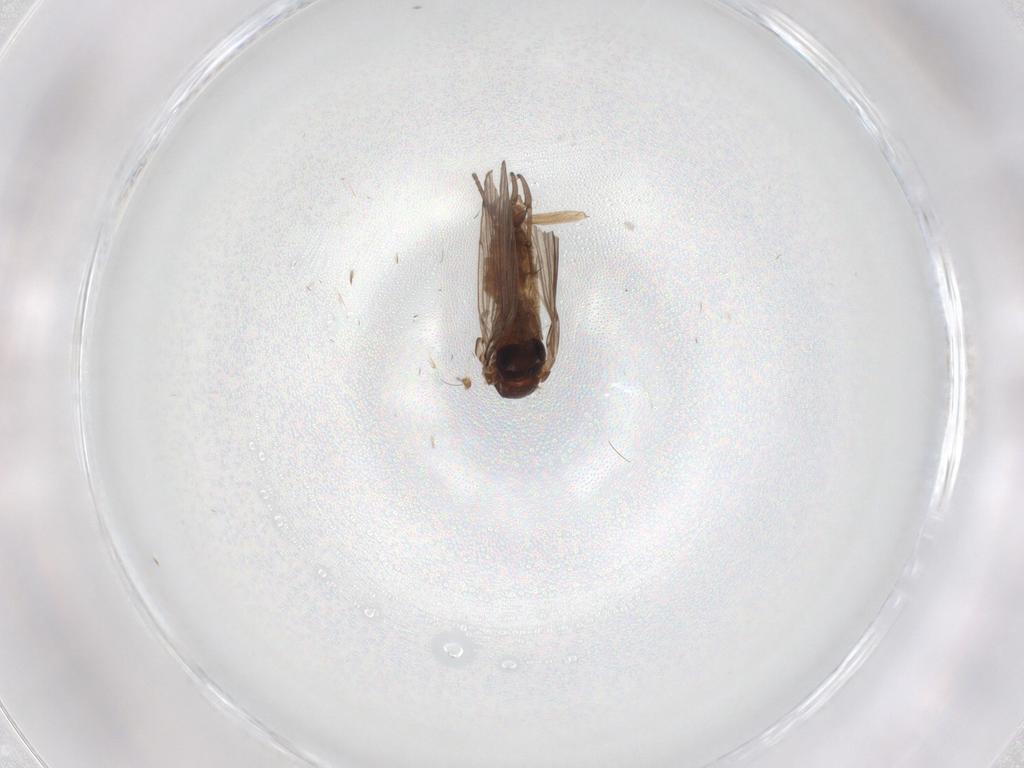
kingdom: Animalia
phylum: Arthropoda
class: Insecta
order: Diptera
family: Psychodidae
